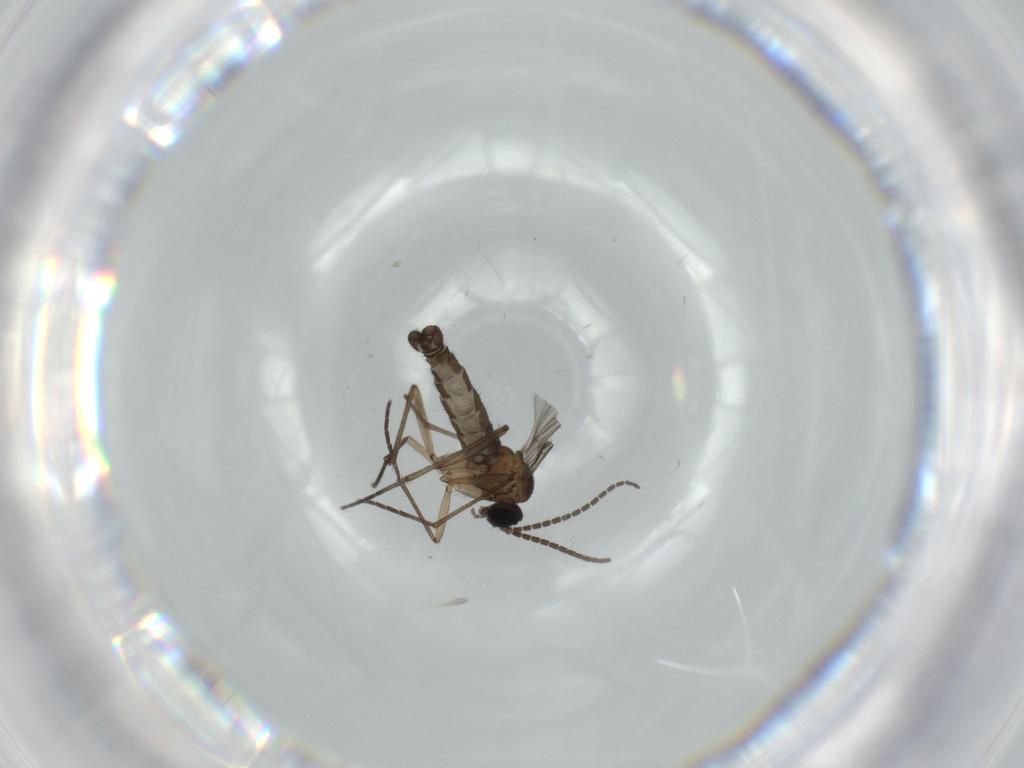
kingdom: Animalia
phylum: Arthropoda
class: Insecta
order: Diptera
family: Sciaridae
